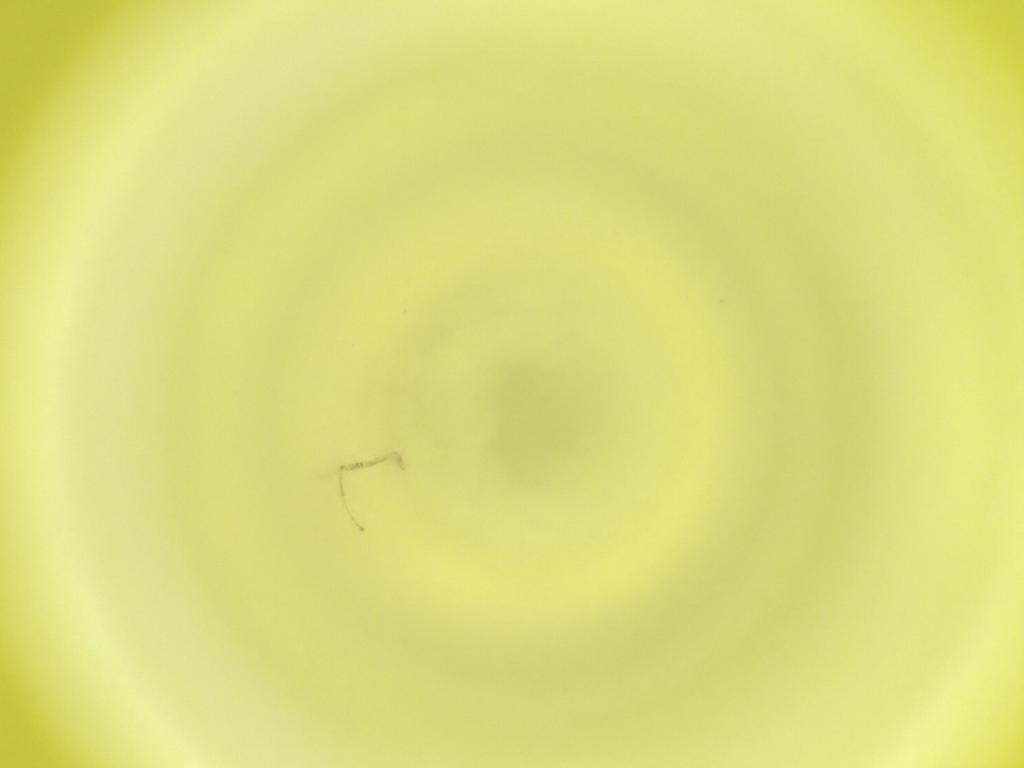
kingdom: Animalia
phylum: Arthropoda
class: Insecta
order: Diptera
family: Cecidomyiidae
